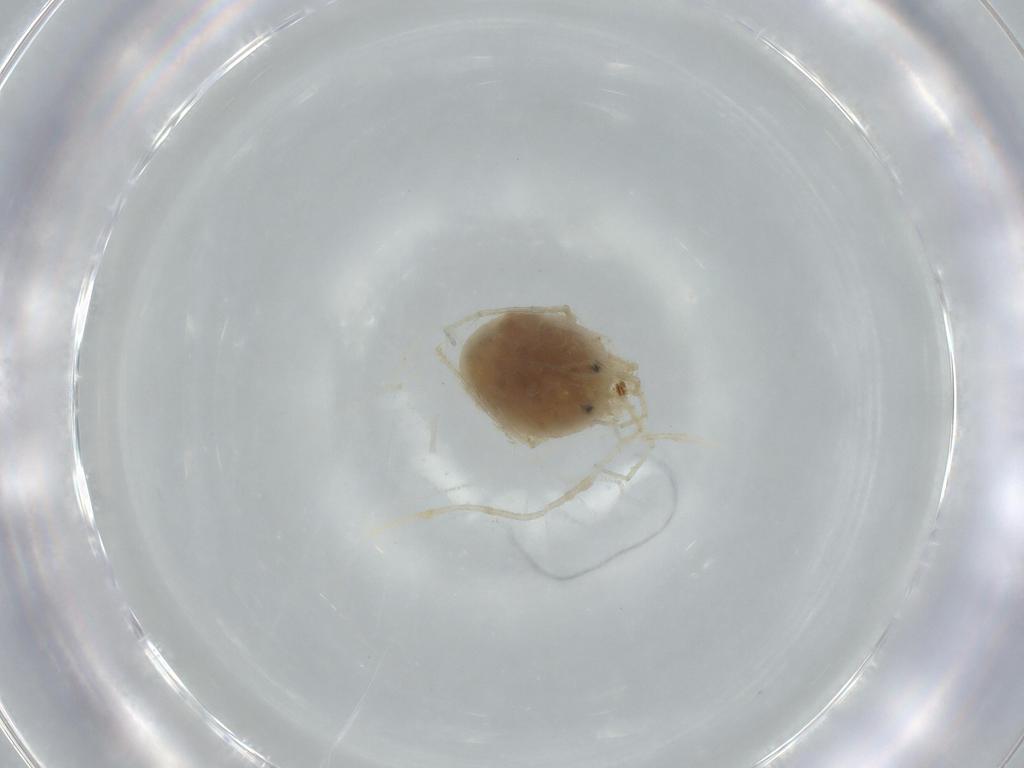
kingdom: Animalia
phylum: Arthropoda
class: Arachnida
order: Trombidiformes
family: Hygrobatidae
